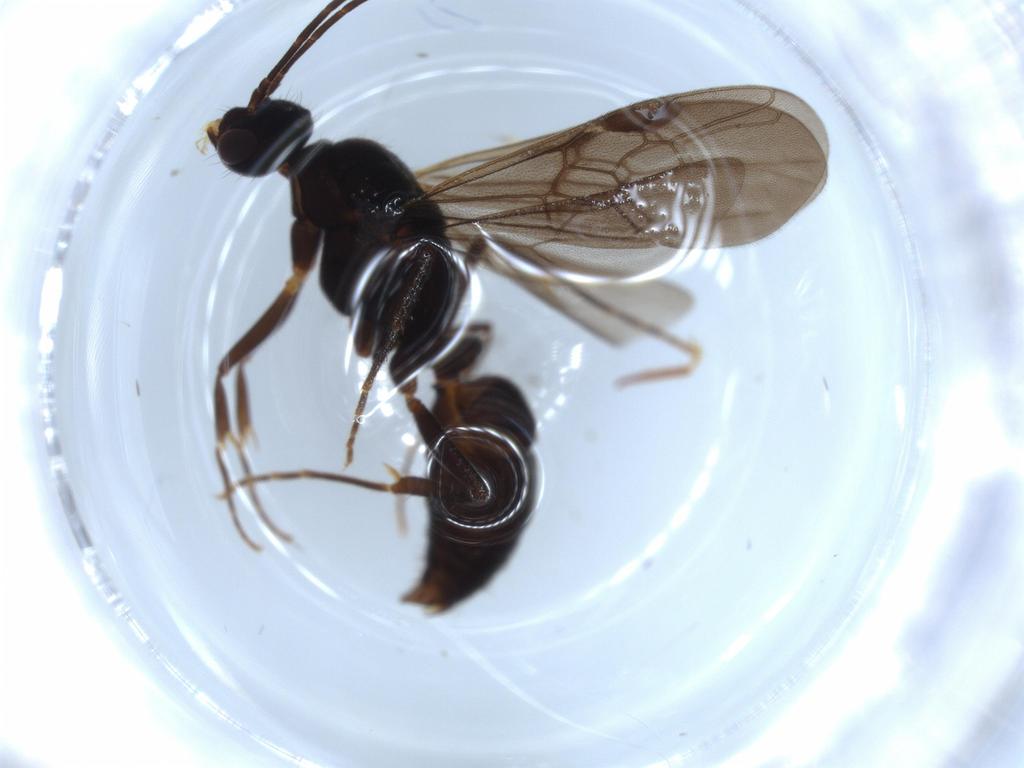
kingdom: Animalia
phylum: Arthropoda
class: Insecta
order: Hymenoptera
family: Formicidae
